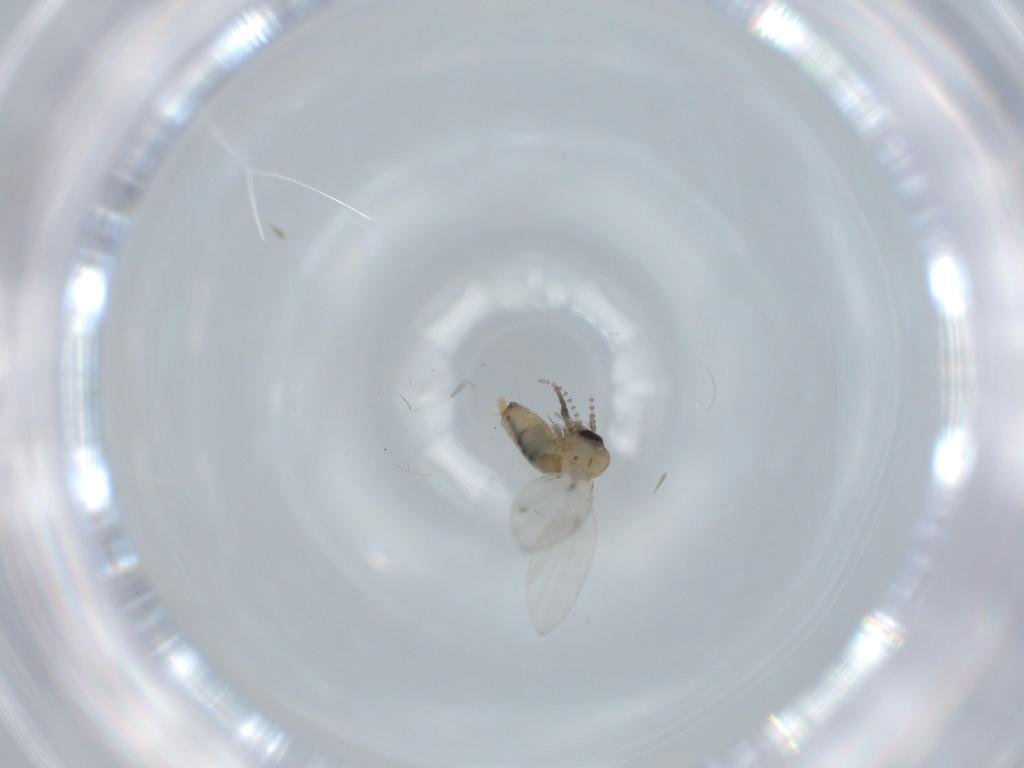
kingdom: Animalia
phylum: Arthropoda
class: Insecta
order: Diptera
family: Psychodidae
